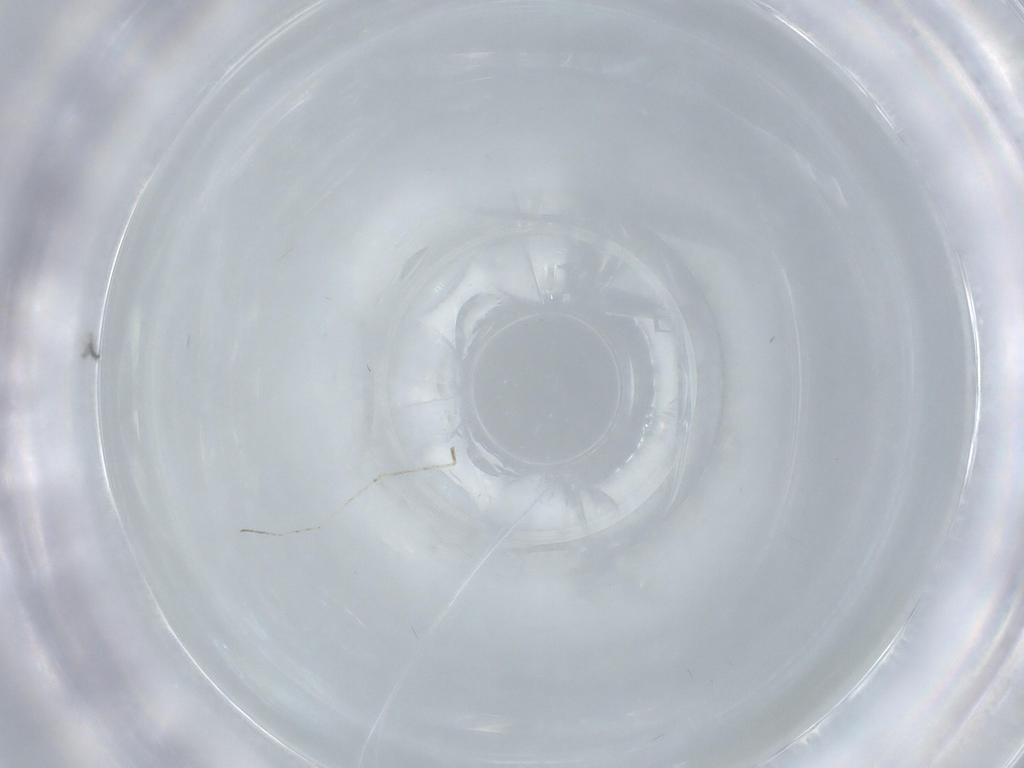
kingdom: Animalia
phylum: Arthropoda
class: Insecta
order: Diptera
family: Cecidomyiidae
